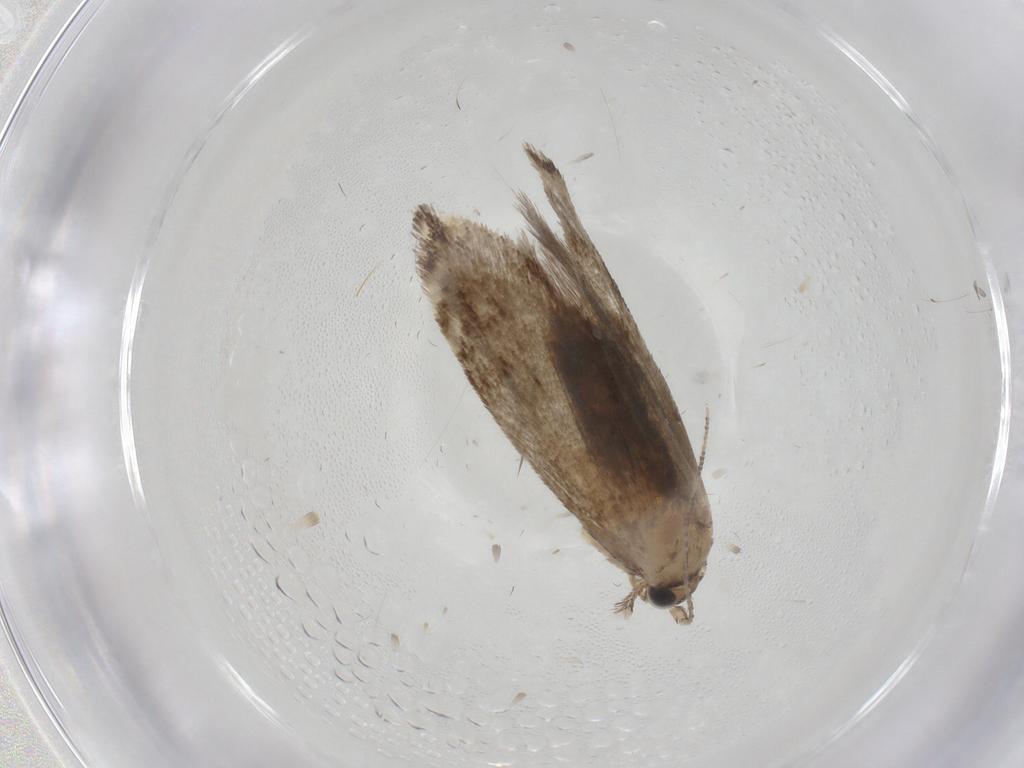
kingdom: Animalia
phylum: Arthropoda
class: Insecta
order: Lepidoptera
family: Tineidae
